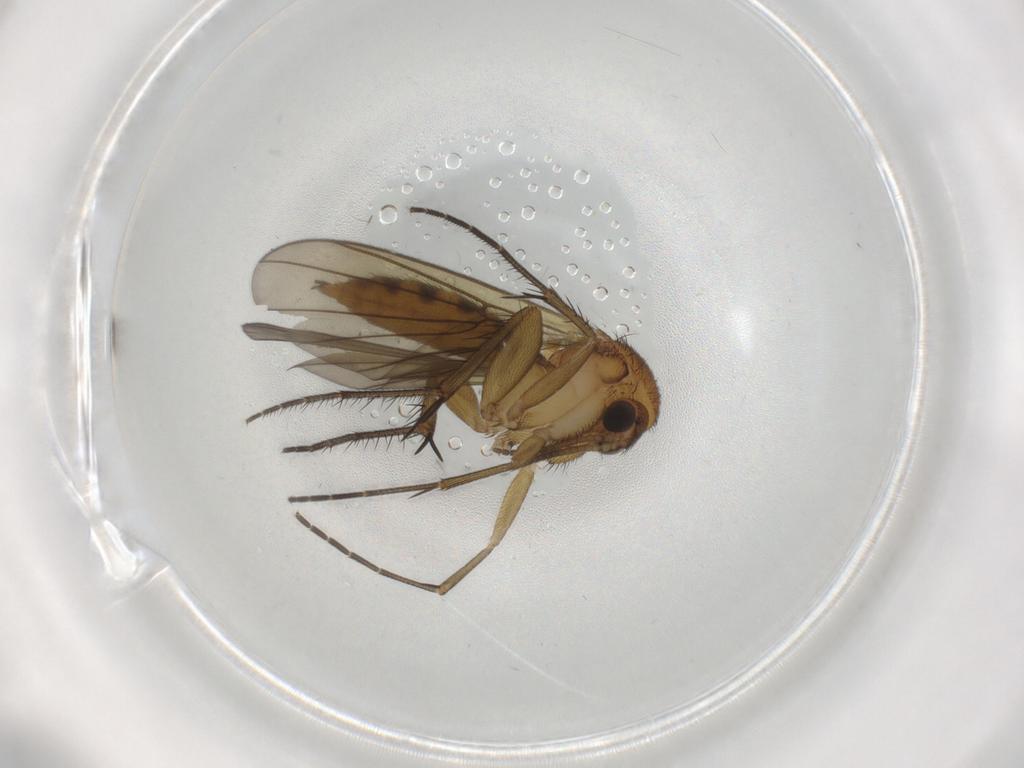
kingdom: Animalia
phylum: Arthropoda
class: Insecta
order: Diptera
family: Mycetophilidae
